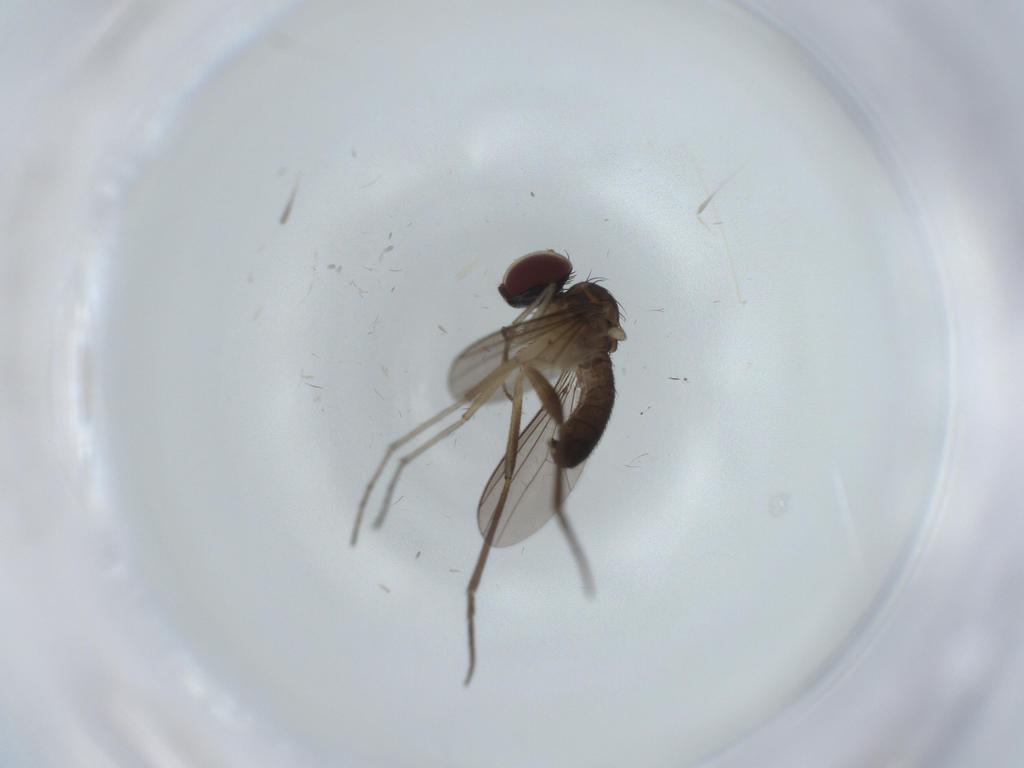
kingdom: Animalia
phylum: Arthropoda
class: Insecta
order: Diptera
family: Dolichopodidae
